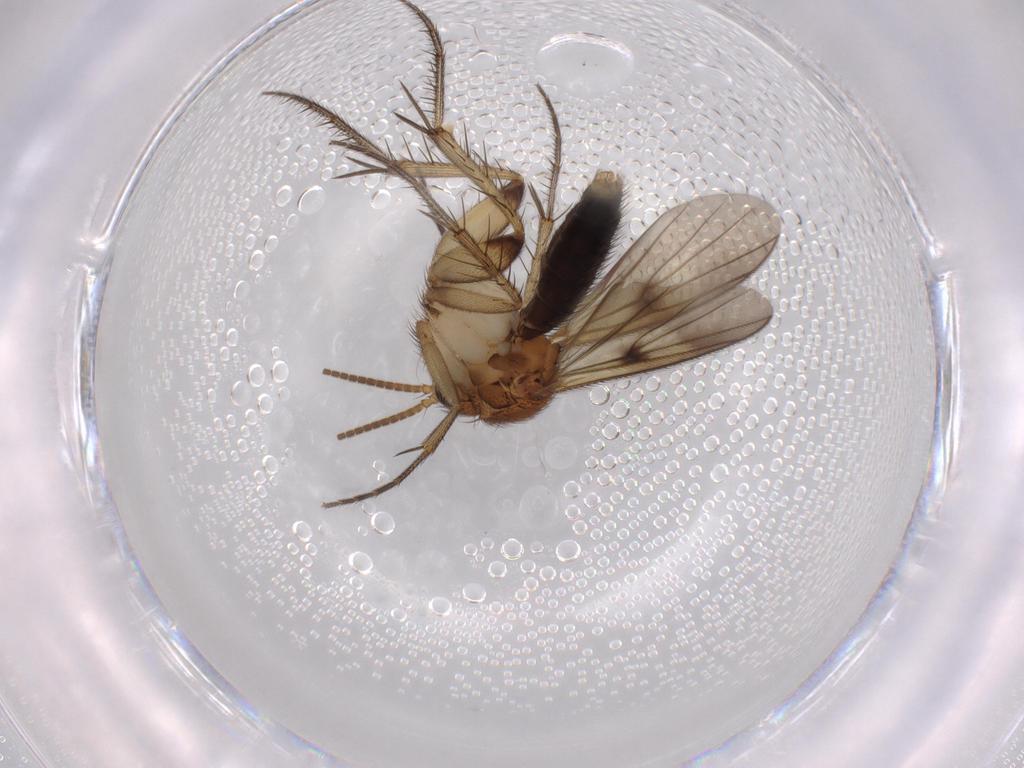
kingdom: Animalia
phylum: Arthropoda
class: Insecta
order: Diptera
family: Mycetophilidae
